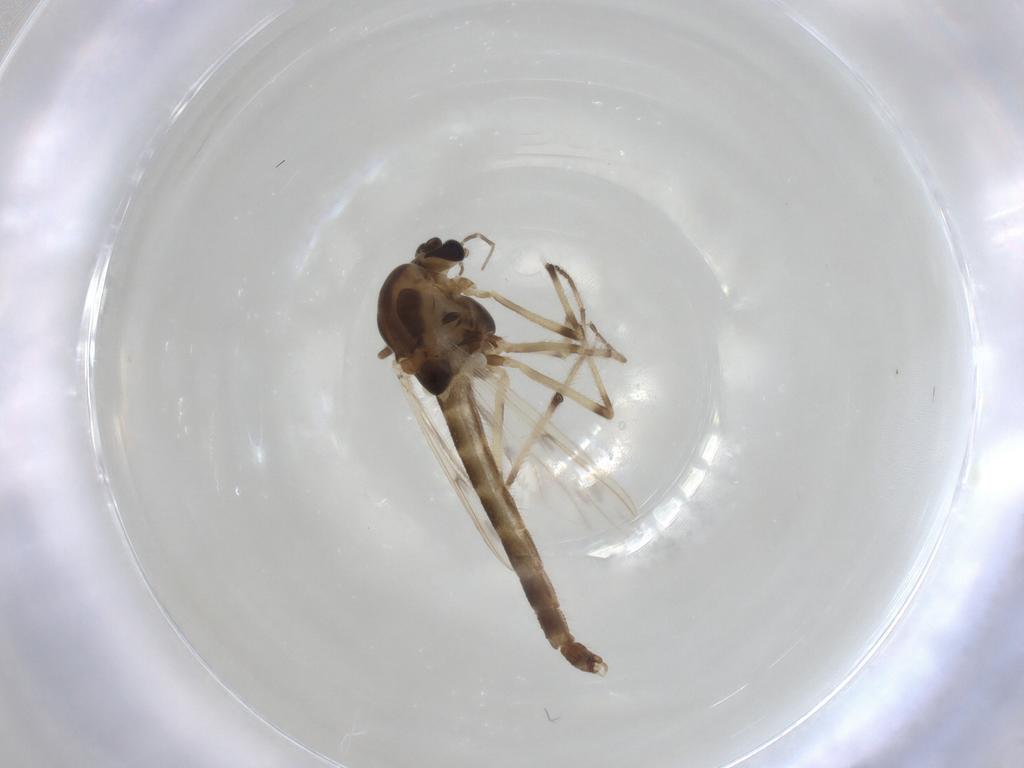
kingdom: Animalia
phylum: Arthropoda
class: Insecta
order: Diptera
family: Chironomidae
